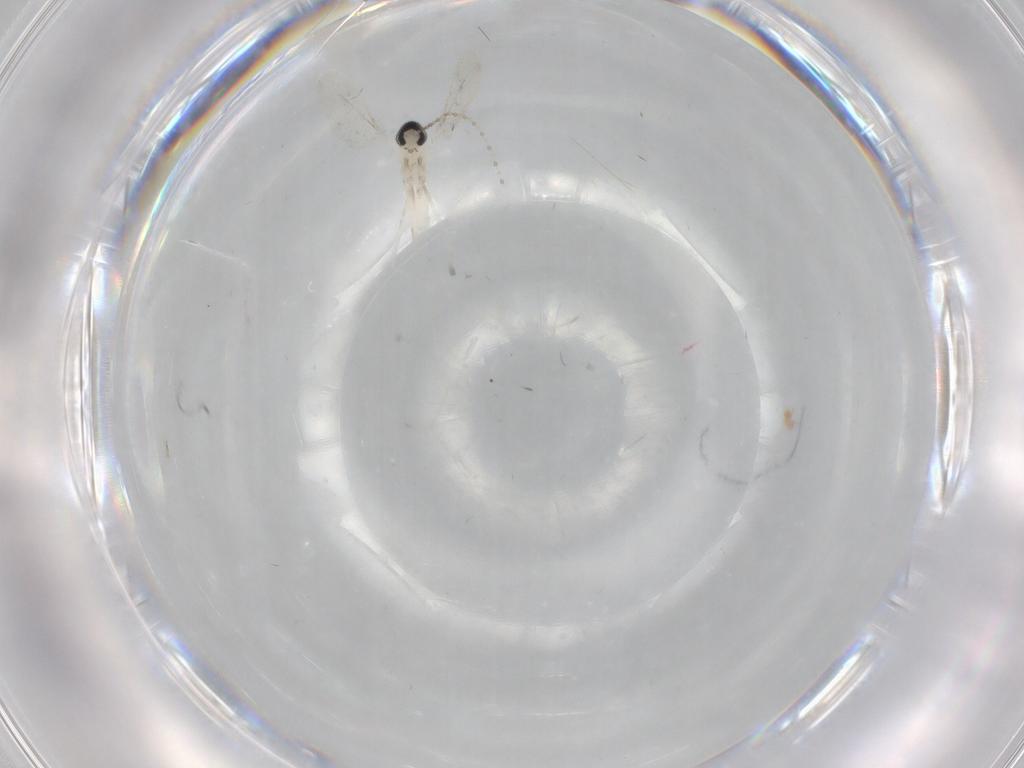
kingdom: Animalia
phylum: Arthropoda
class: Insecta
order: Diptera
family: Cecidomyiidae
